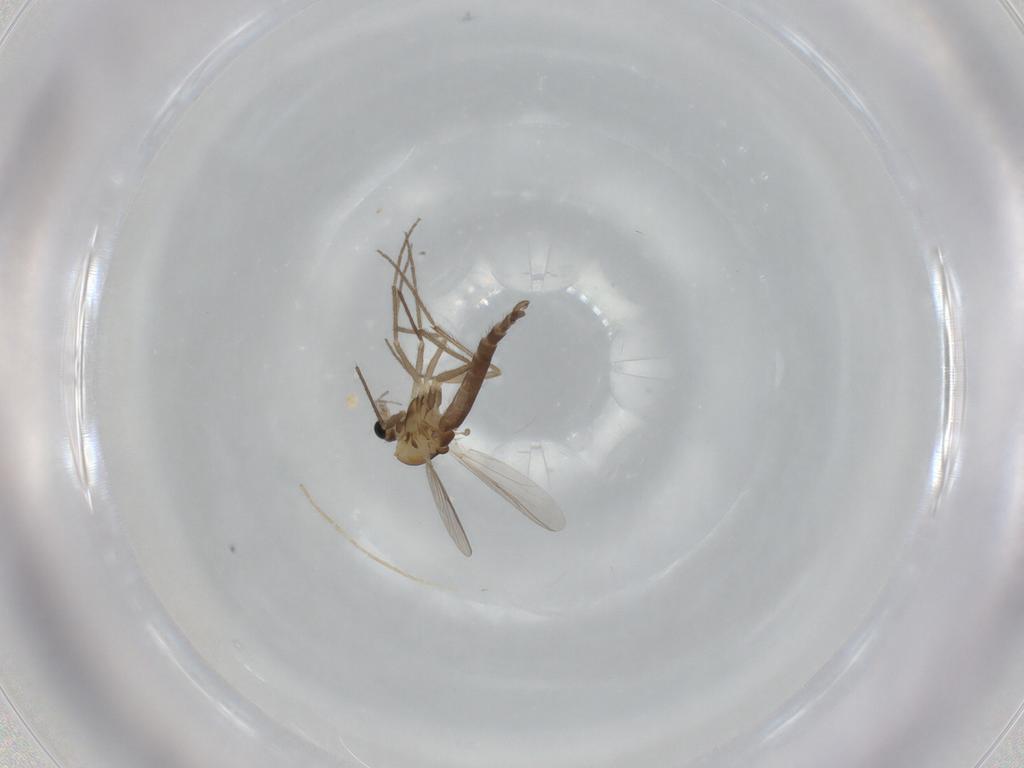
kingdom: Animalia
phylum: Arthropoda
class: Insecta
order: Diptera
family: Chironomidae
